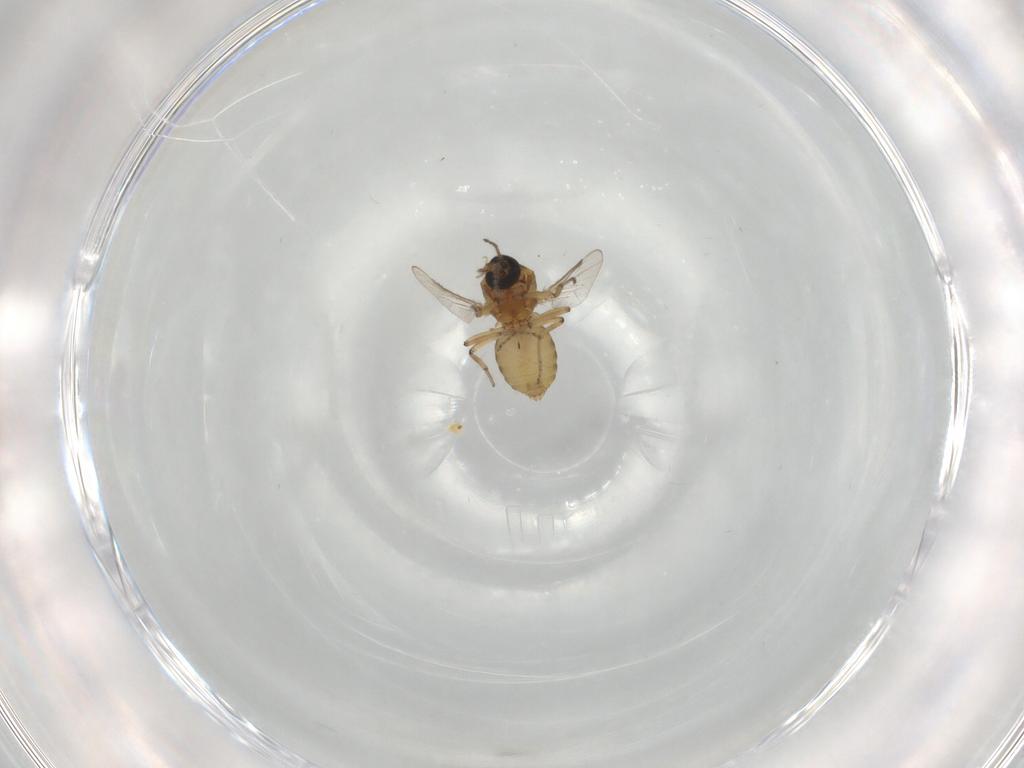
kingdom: Animalia
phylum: Arthropoda
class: Insecta
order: Diptera
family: Ceratopogonidae
